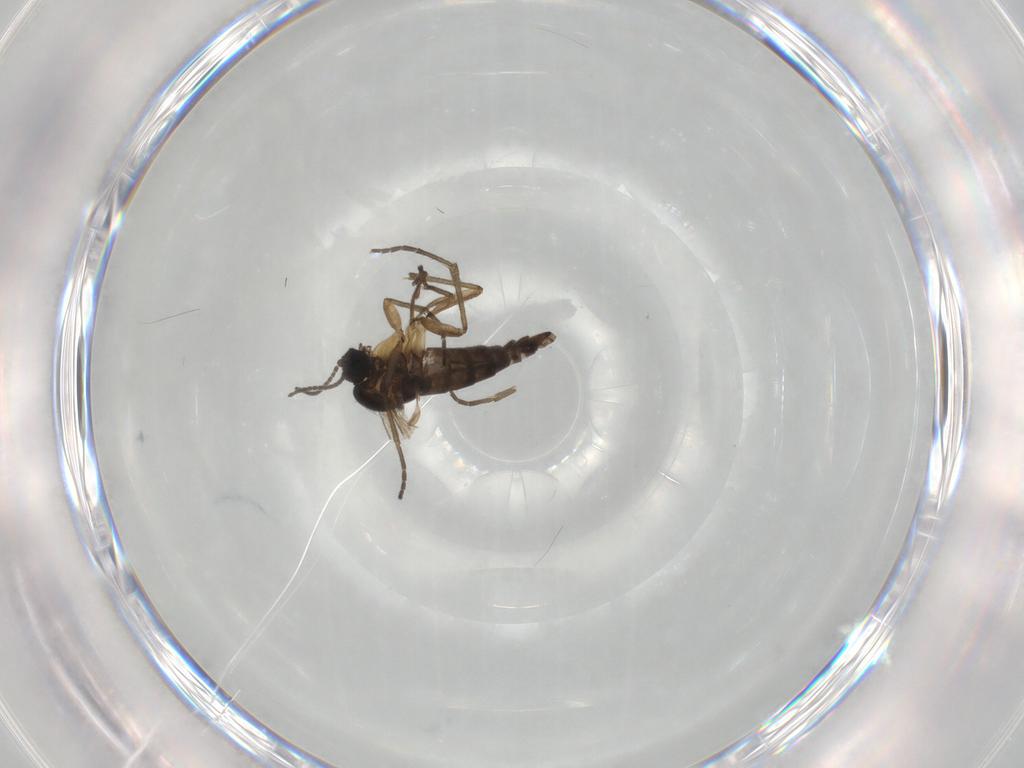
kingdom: Animalia
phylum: Arthropoda
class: Insecta
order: Diptera
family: Sciaridae
